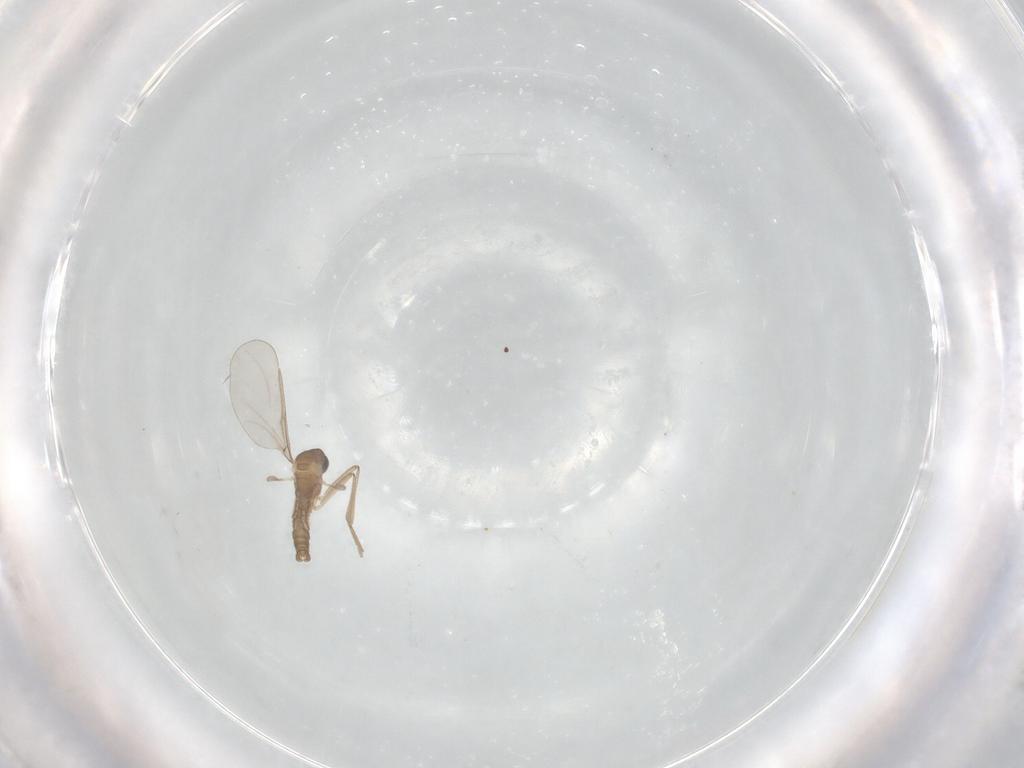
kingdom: Animalia
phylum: Arthropoda
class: Insecta
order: Diptera
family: Cecidomyiidae
